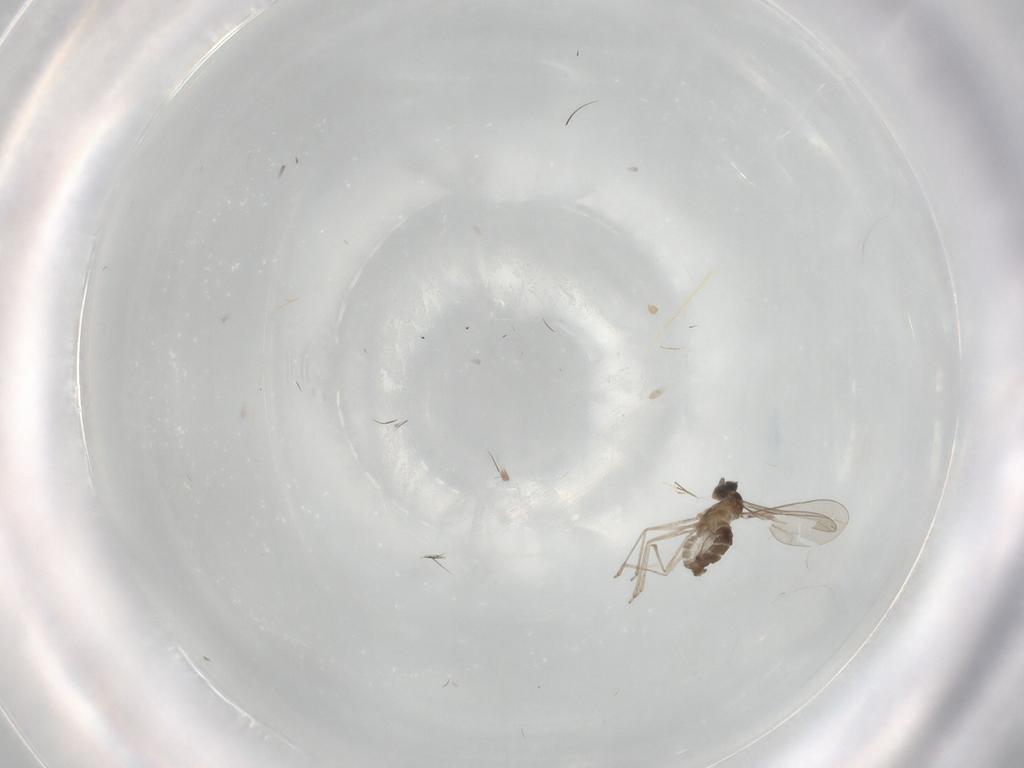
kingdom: Animalia
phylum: Arthropoda
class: Insecta
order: Diptera
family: Cecidomyiidae
